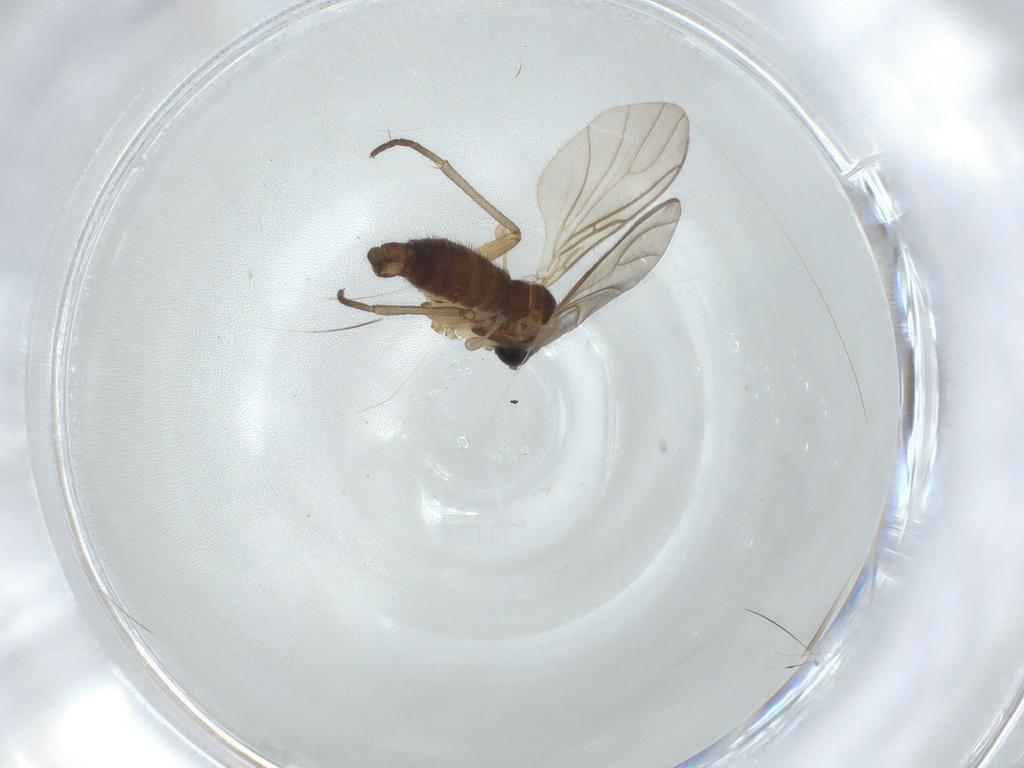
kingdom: Animalia
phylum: Arthropoda
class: Insecta
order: Diptera
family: Sciaridae
